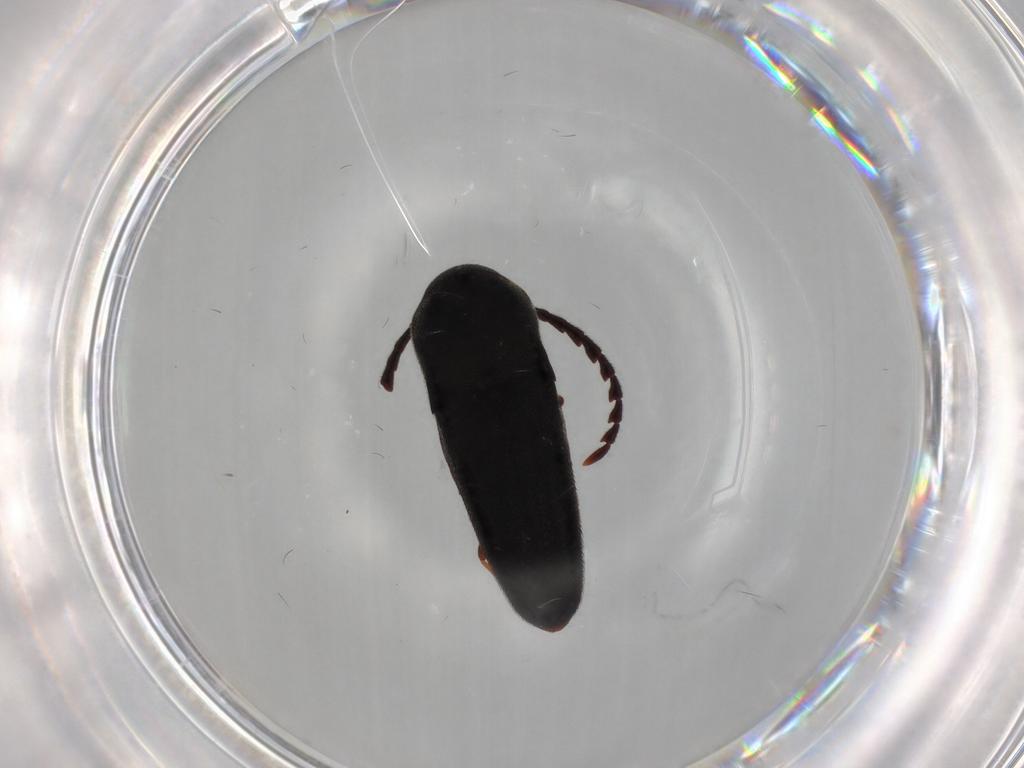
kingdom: Animalia
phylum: Arthropoda
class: Insecta
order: Coleoptera
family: Eucnemidae
